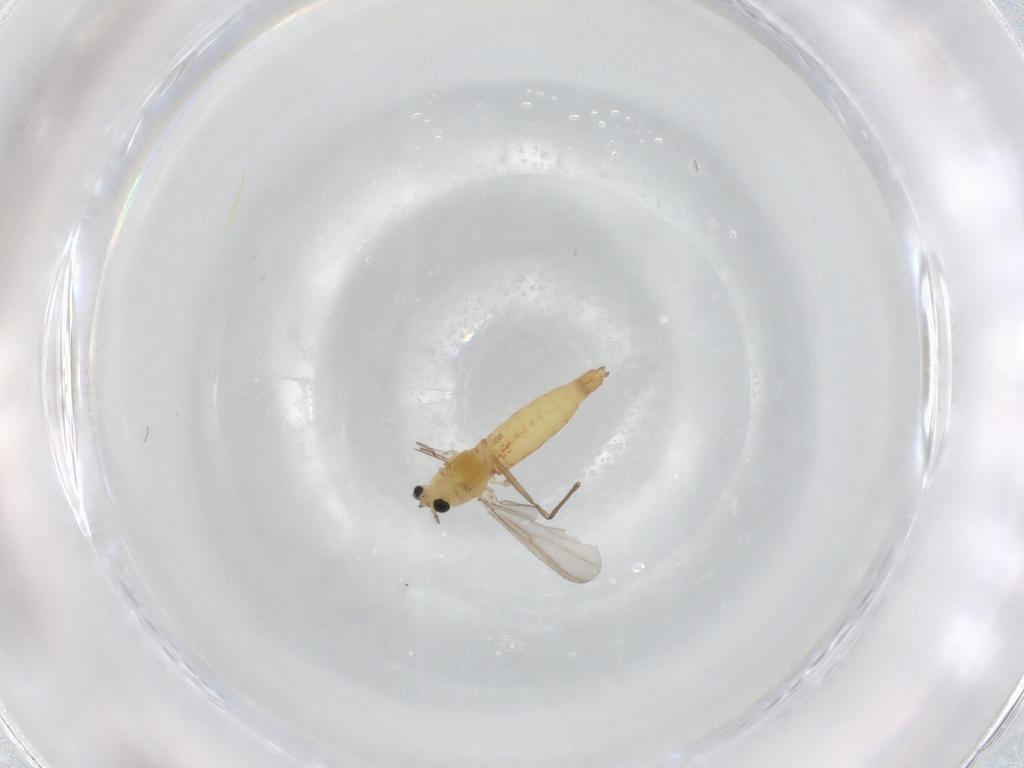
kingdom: Animalia
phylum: Arthropoda
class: Insecta
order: Diptera
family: Chironomidae
